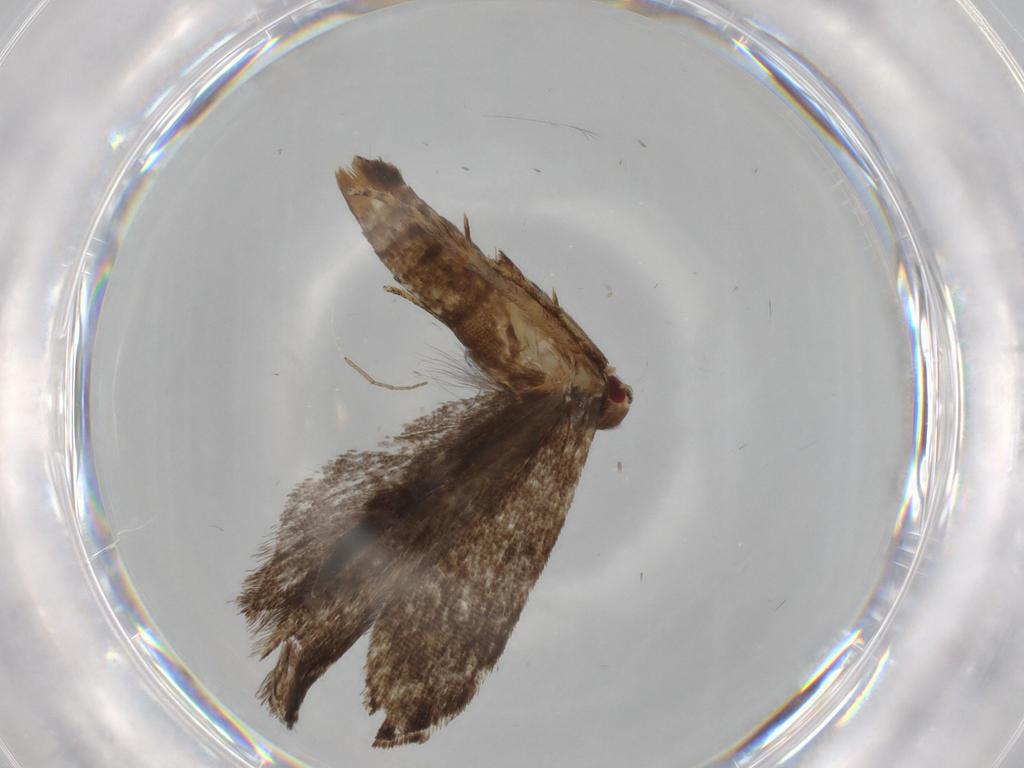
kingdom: Animalia
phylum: Arthropoda
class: Insecta
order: Lepidoptera
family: Gelechiidae
